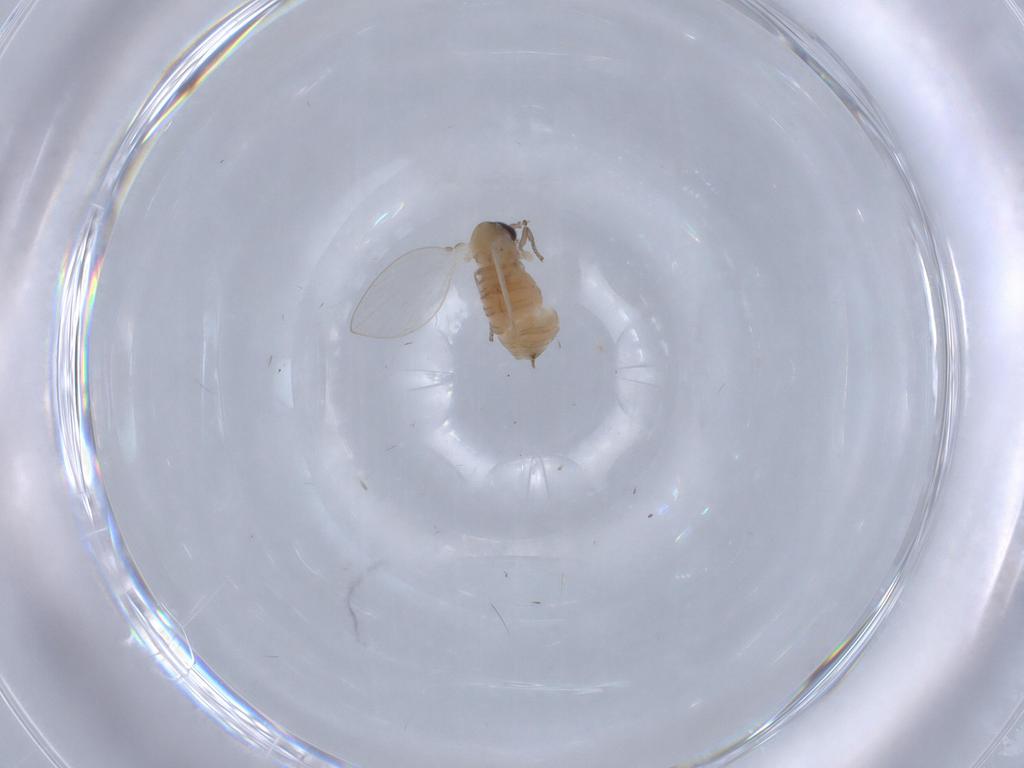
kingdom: Animalia
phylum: Arthropoda
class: Insecta
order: Diptera
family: Psychodidae
